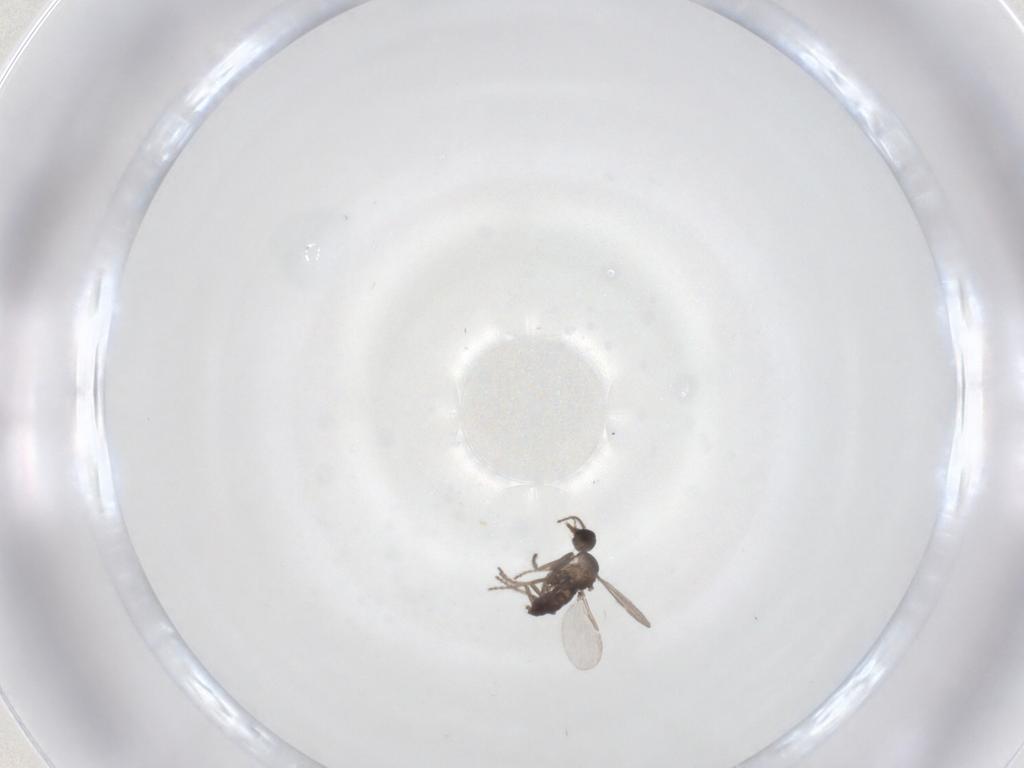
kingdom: Animalia
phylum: Arthropoda
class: Insecta
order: Diptera
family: Ceratopogonidae
